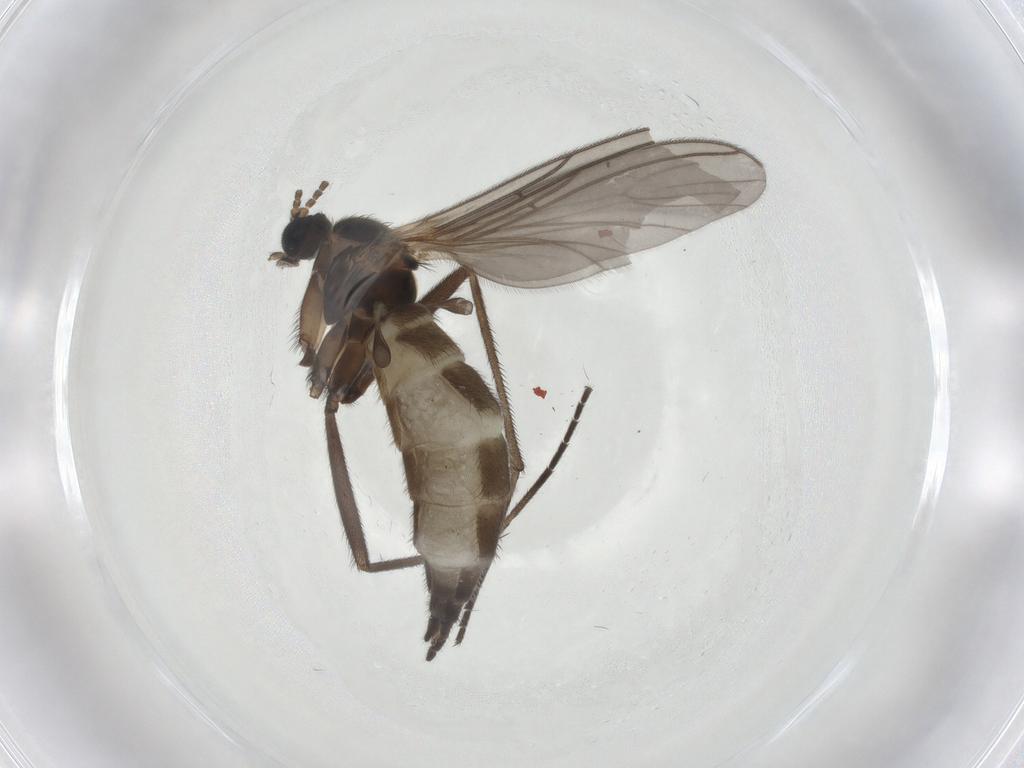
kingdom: Animalia
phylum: Arthropoda
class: Insecta
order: Diptera
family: Sciaridae
